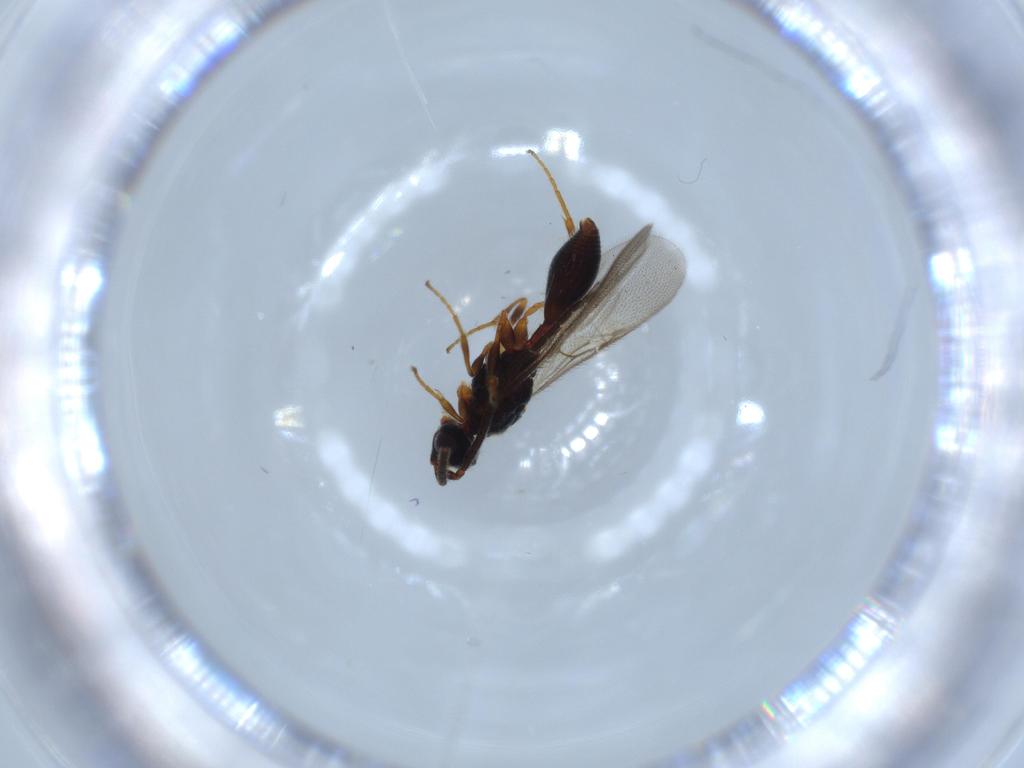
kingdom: Animalia
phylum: Arthropoda
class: Insecta
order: Hymenoptera
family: Diapriidae
